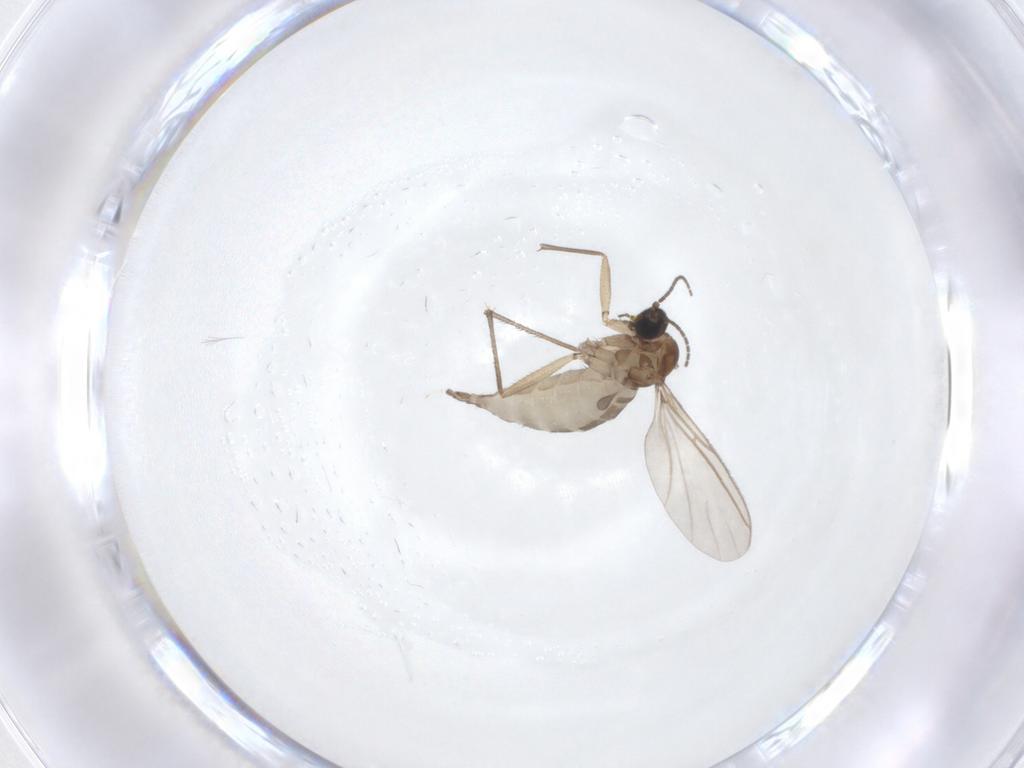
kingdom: Animalia
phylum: Arthropoda
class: Insecta
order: Diptera
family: Sciaridae
